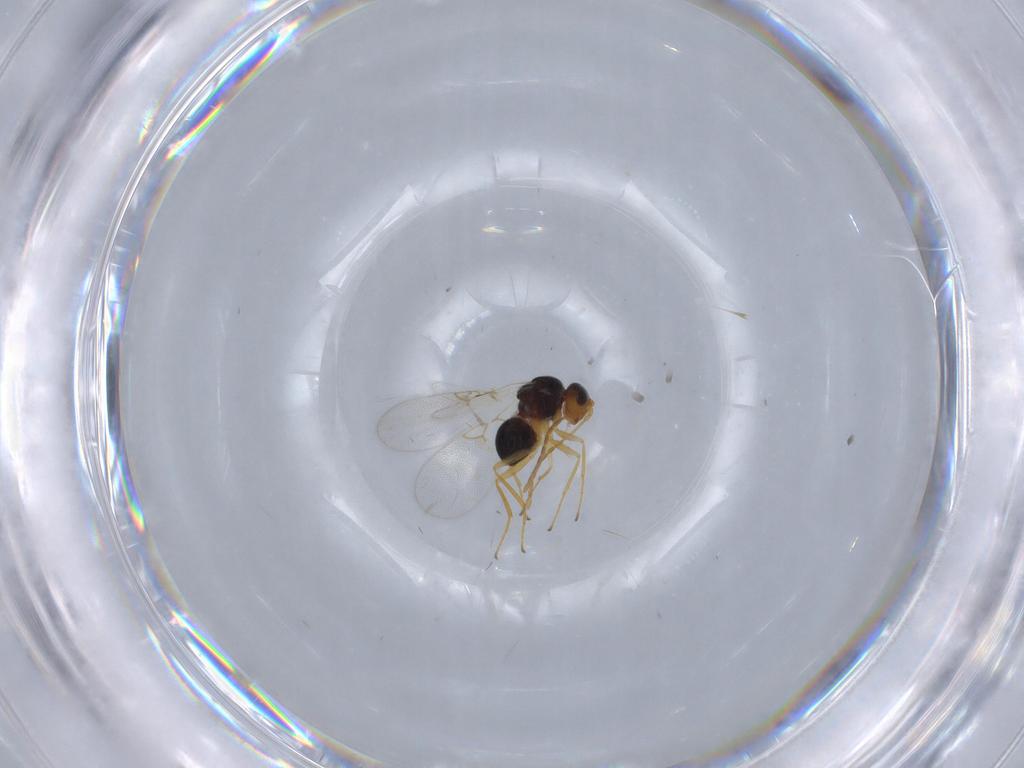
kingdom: Animalia
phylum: Arthropoda
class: Insecta
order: Hymenoptera
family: Figitidae
